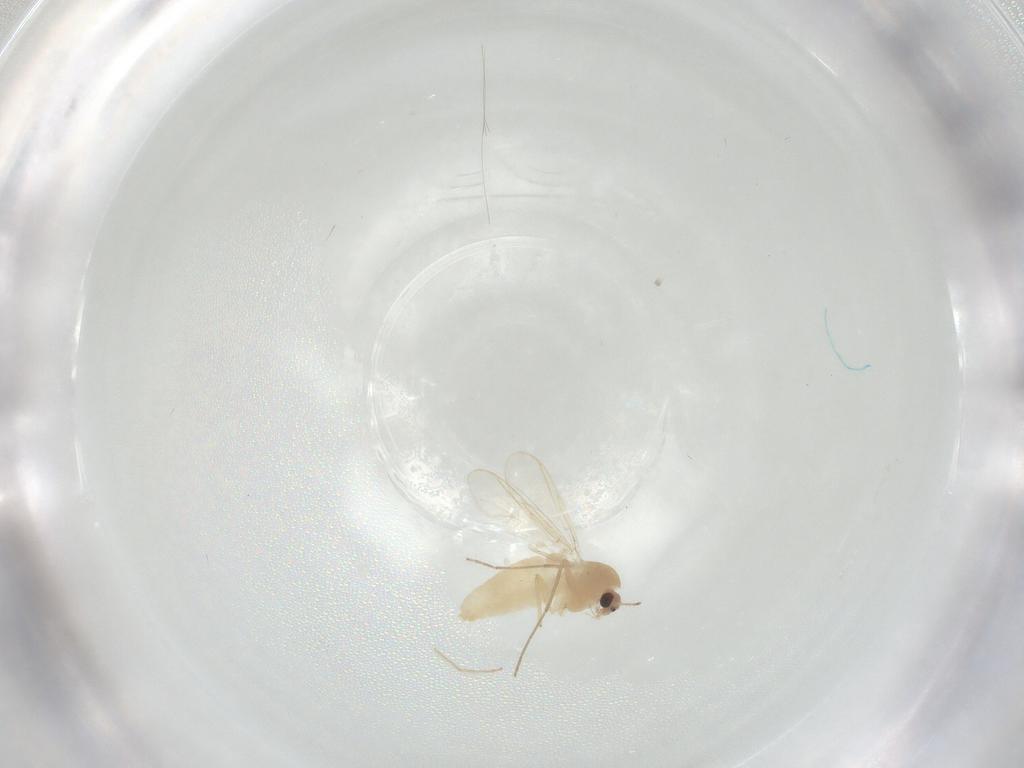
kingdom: Animalia
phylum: Arthropoda
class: Insecta
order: Diptera
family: Chironomidae
